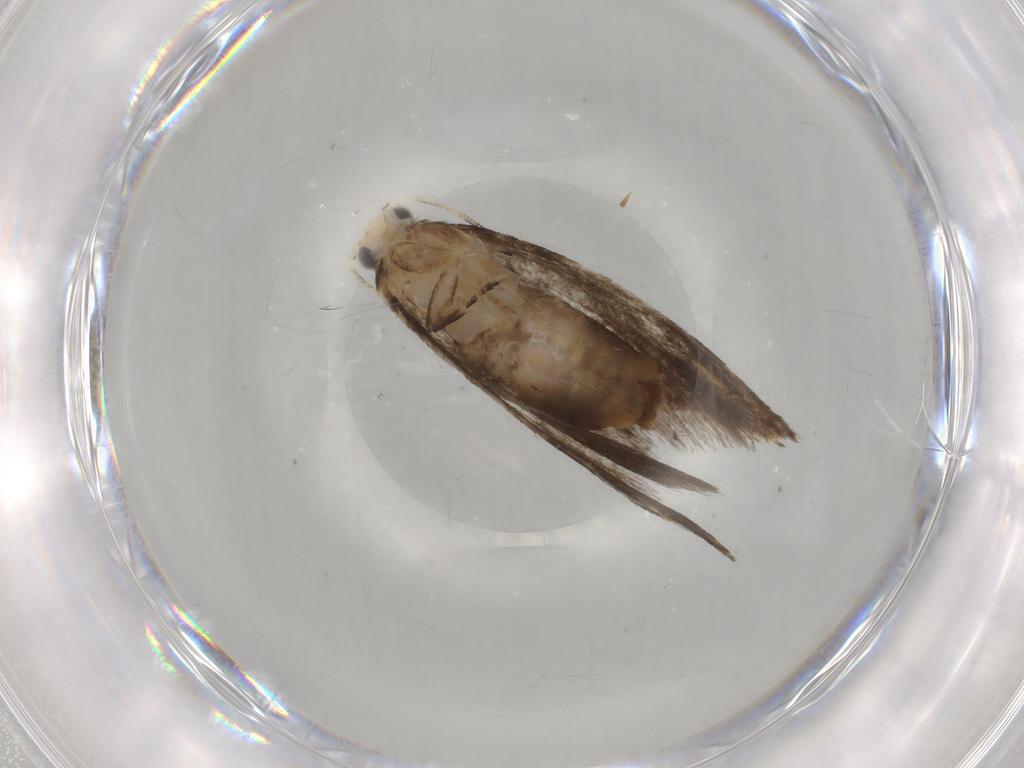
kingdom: Animalia
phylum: Arthropoda
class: Insecta
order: Lepidoptera
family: Tineidae
